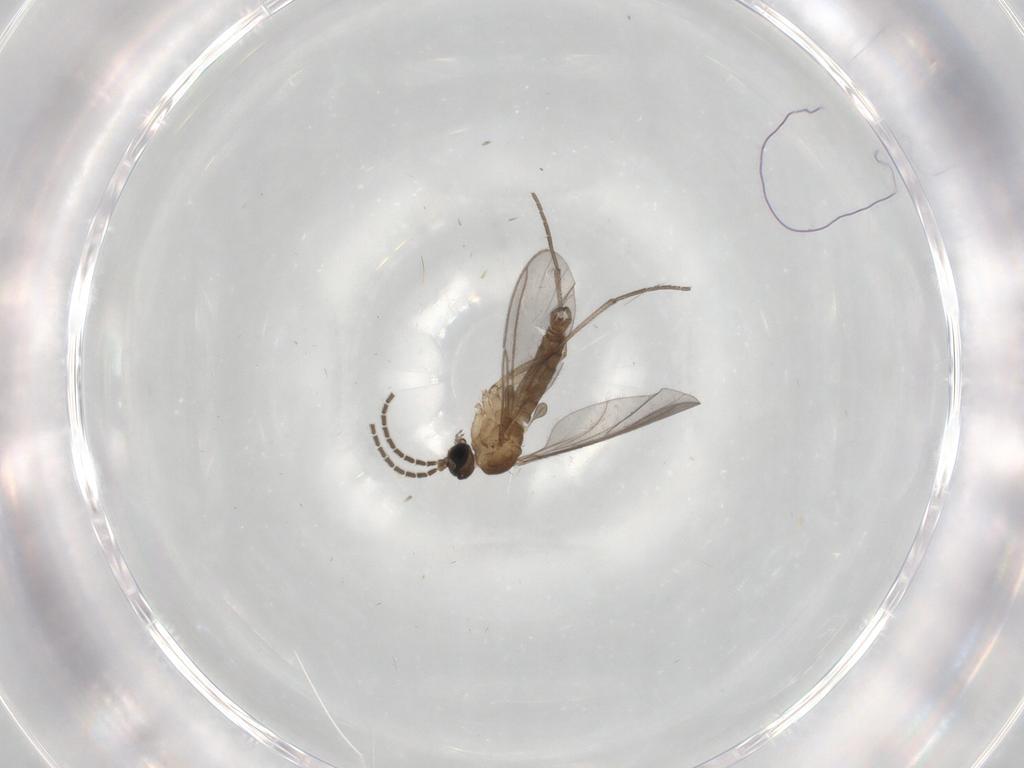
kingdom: Animalia
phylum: Arthropoda
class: Insecta
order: Diptera
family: Sciaridae
